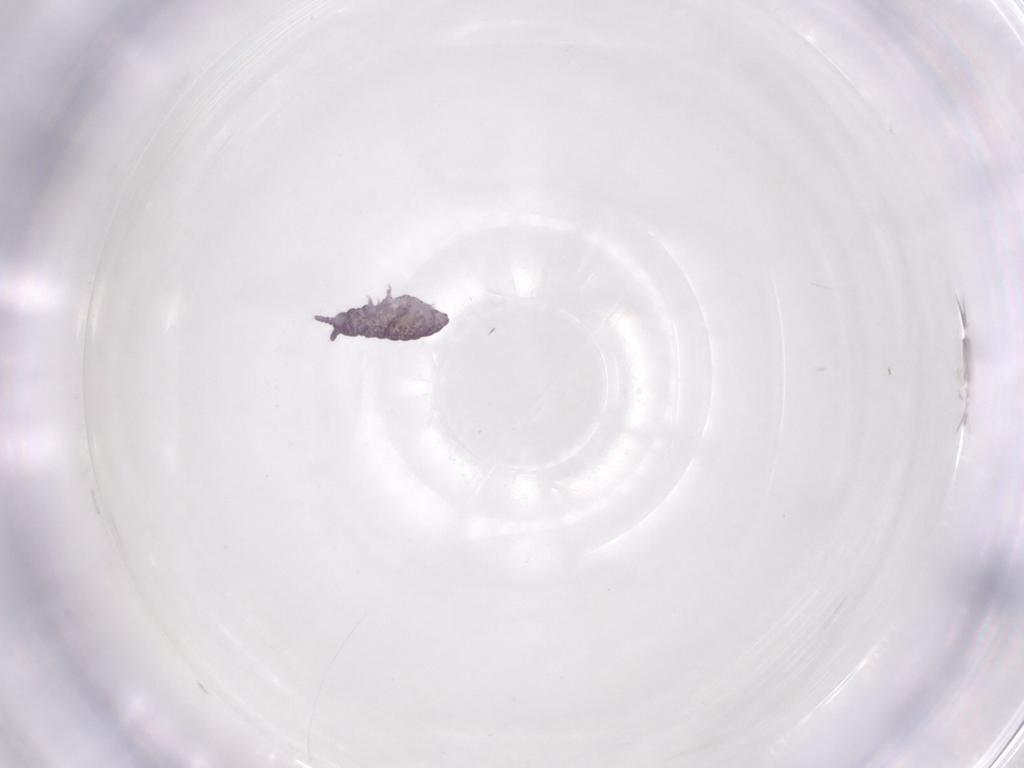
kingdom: Animalia
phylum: Arthropoda
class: Collembola
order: Poduromorpha
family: Brachystomellidae
